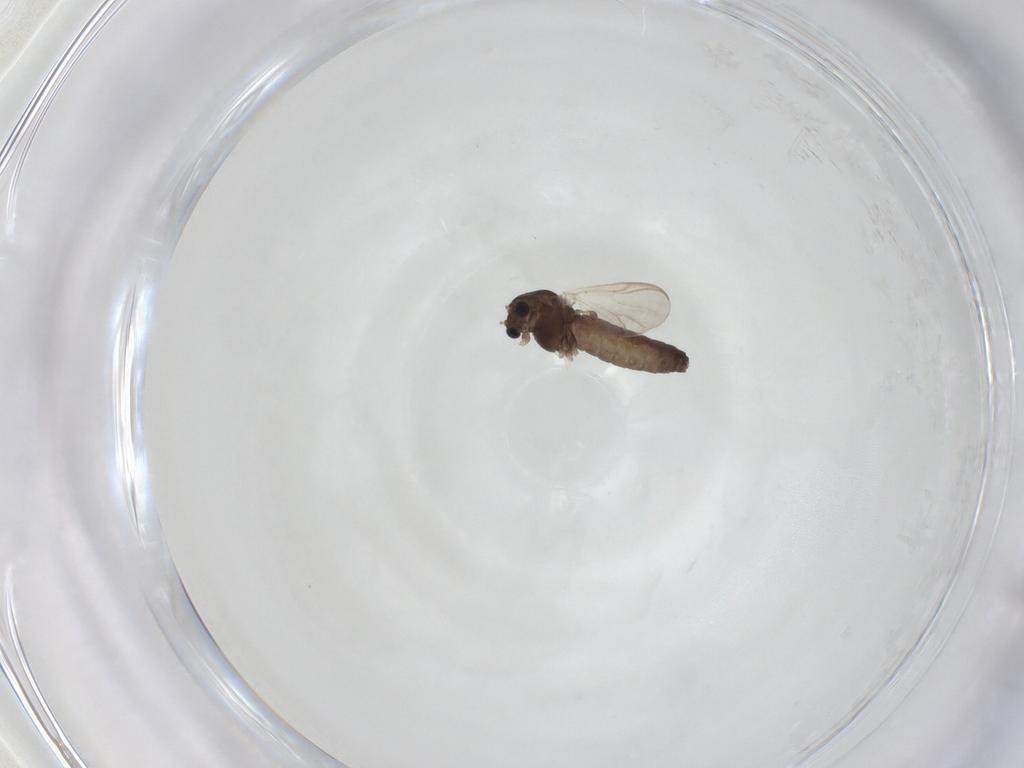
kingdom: Animalia
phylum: Arthropoda
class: Insecta
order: Diptera
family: Chironomidae
